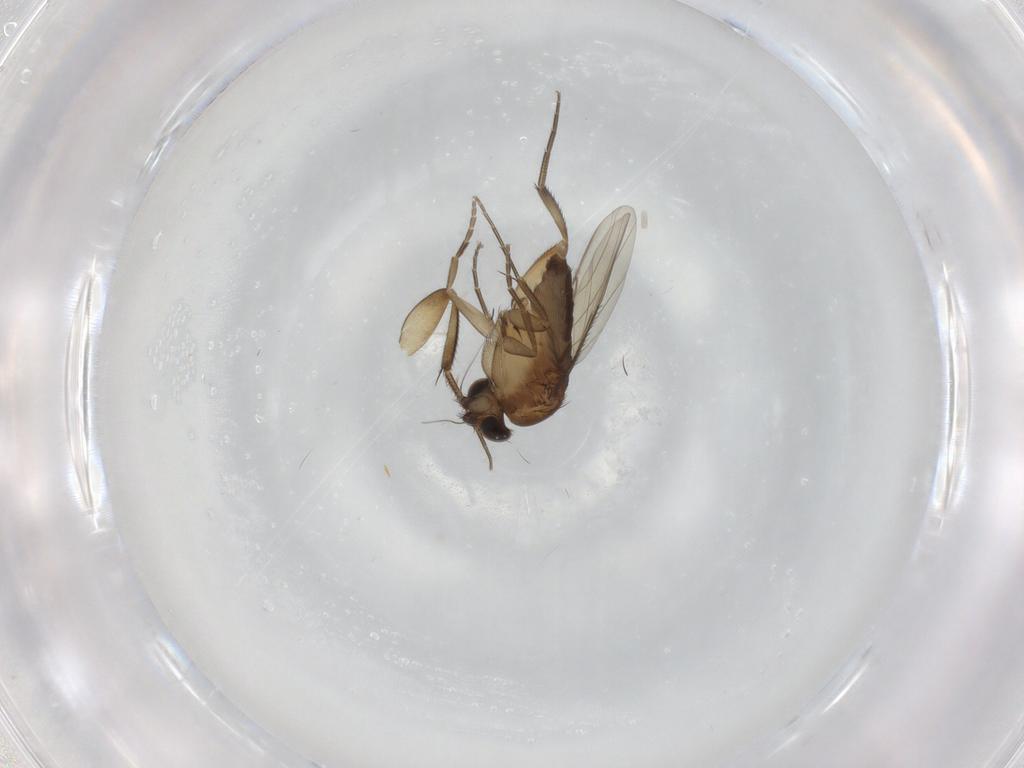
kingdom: Animalia
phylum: Arthropoda
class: Insecta
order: Diptera
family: Phoridae
